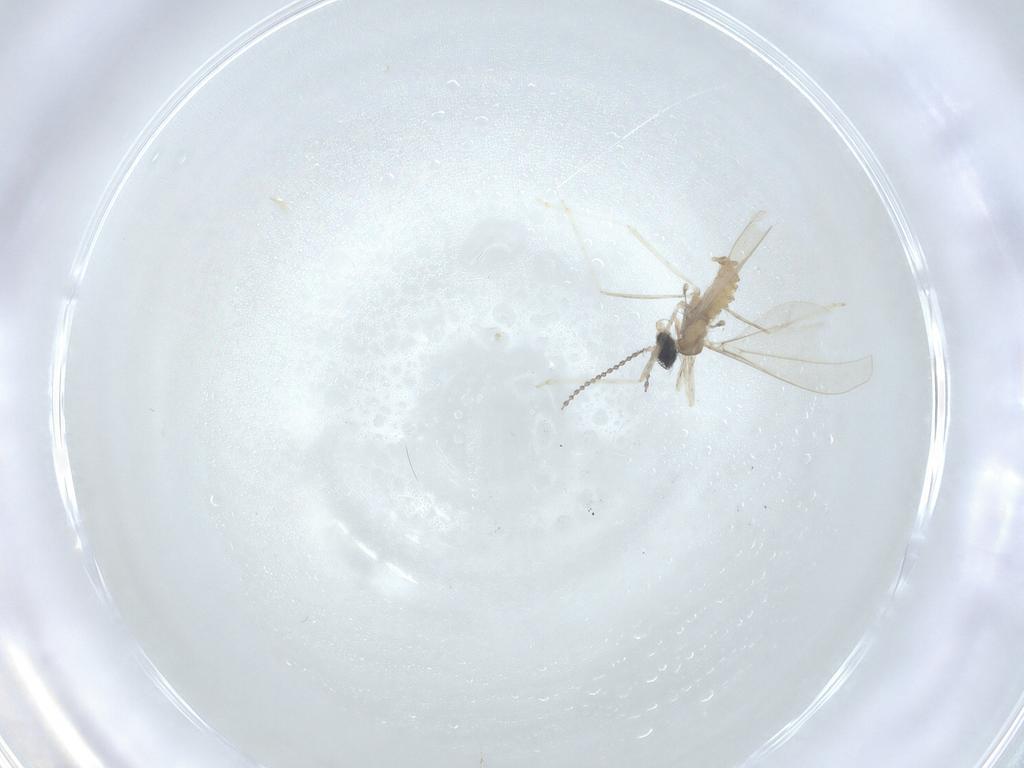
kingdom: Animalia
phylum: Arthropoda
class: Insecta
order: Diptera
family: Cecidomyiidae
